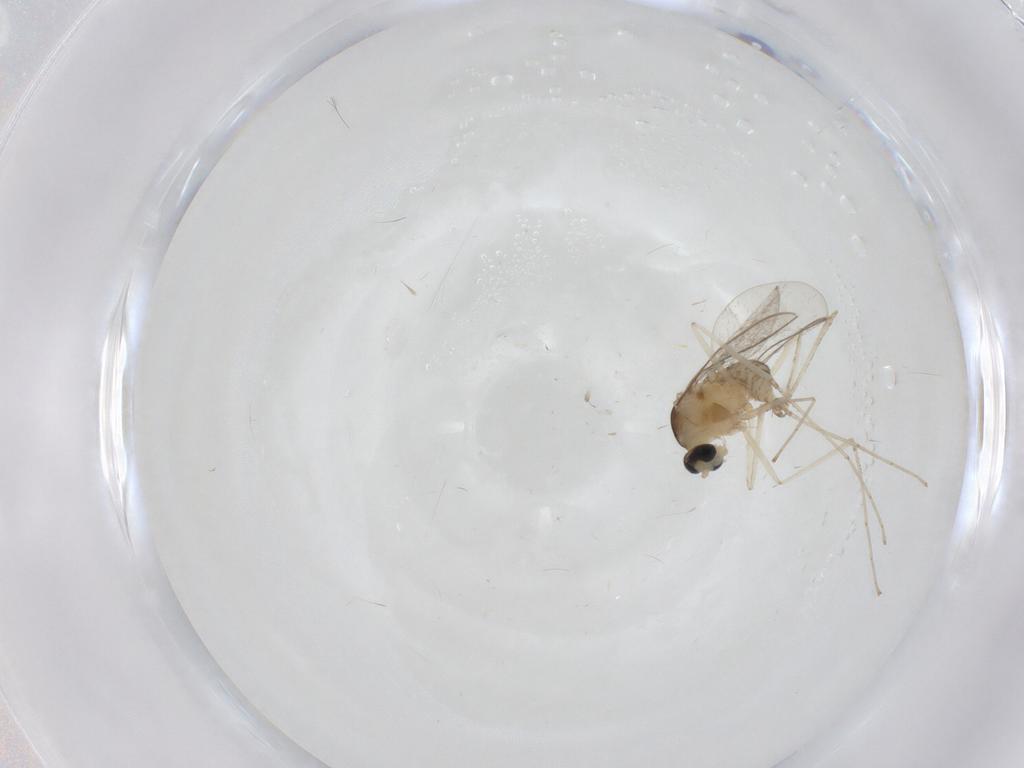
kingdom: Animalia
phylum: Arthropoda
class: Insecta
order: Diptera
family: Chironomidae
